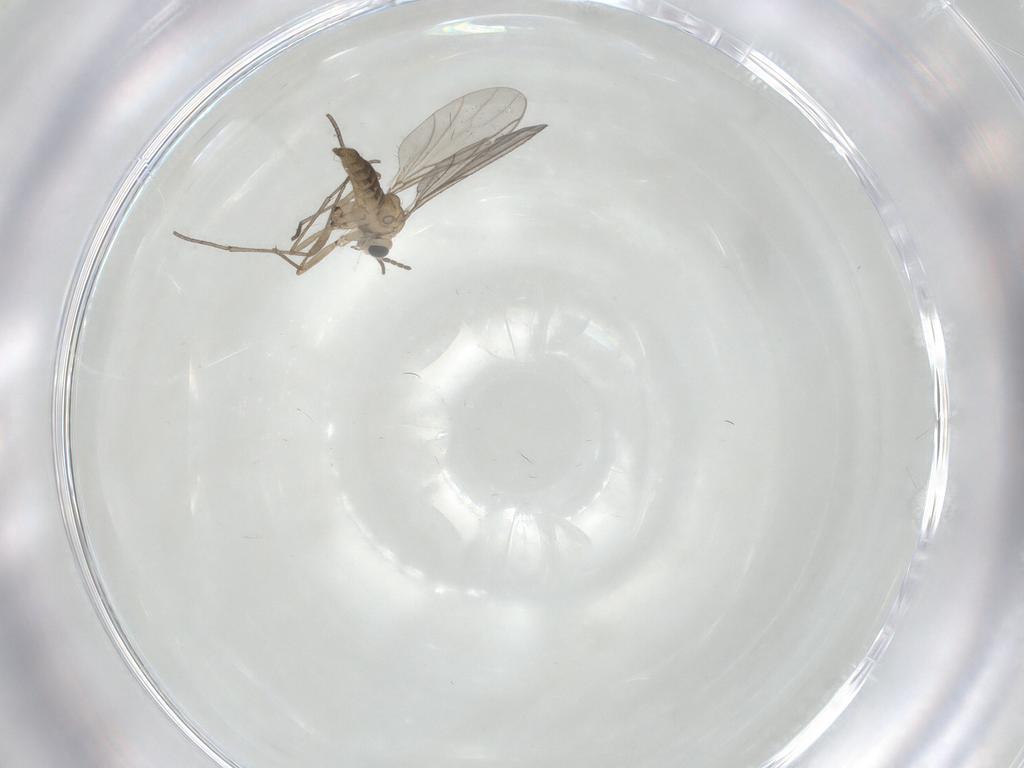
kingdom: Animalia
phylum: Arthropoda
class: Insecta
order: Diptera
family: Sciaridae
